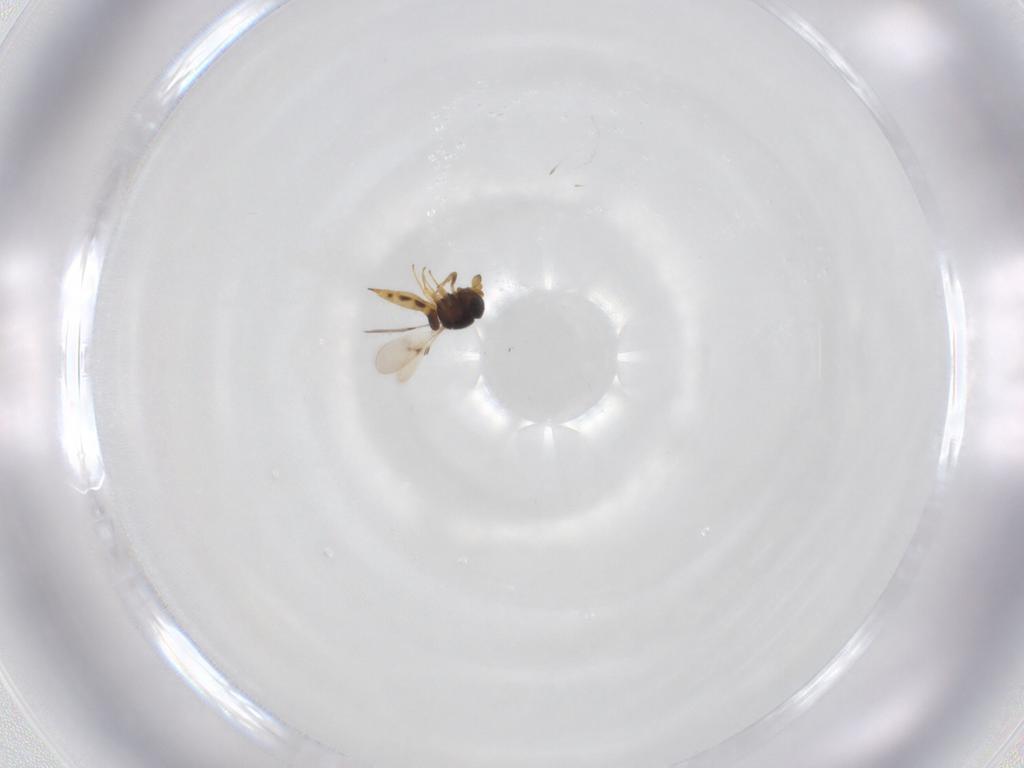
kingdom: Animalia
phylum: Arthropoda
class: Insecta
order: Hymenoptera
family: Scelionidae
